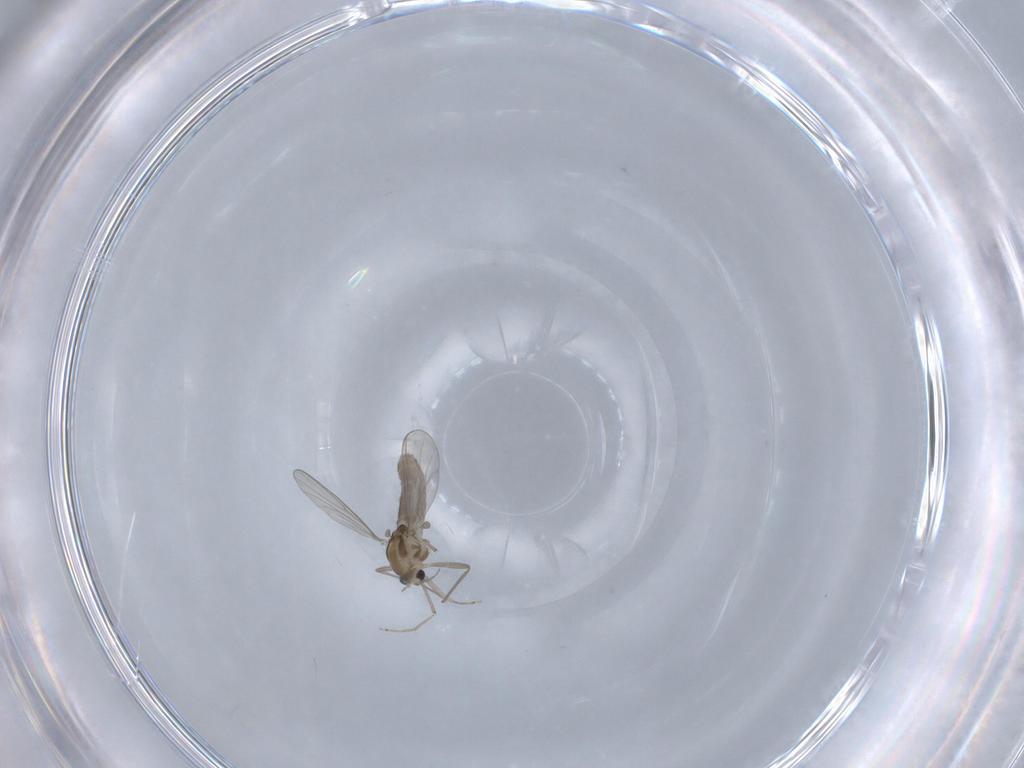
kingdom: Animalia
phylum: Arthropoda
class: Insecta
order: Diptera
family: Chironomidae
